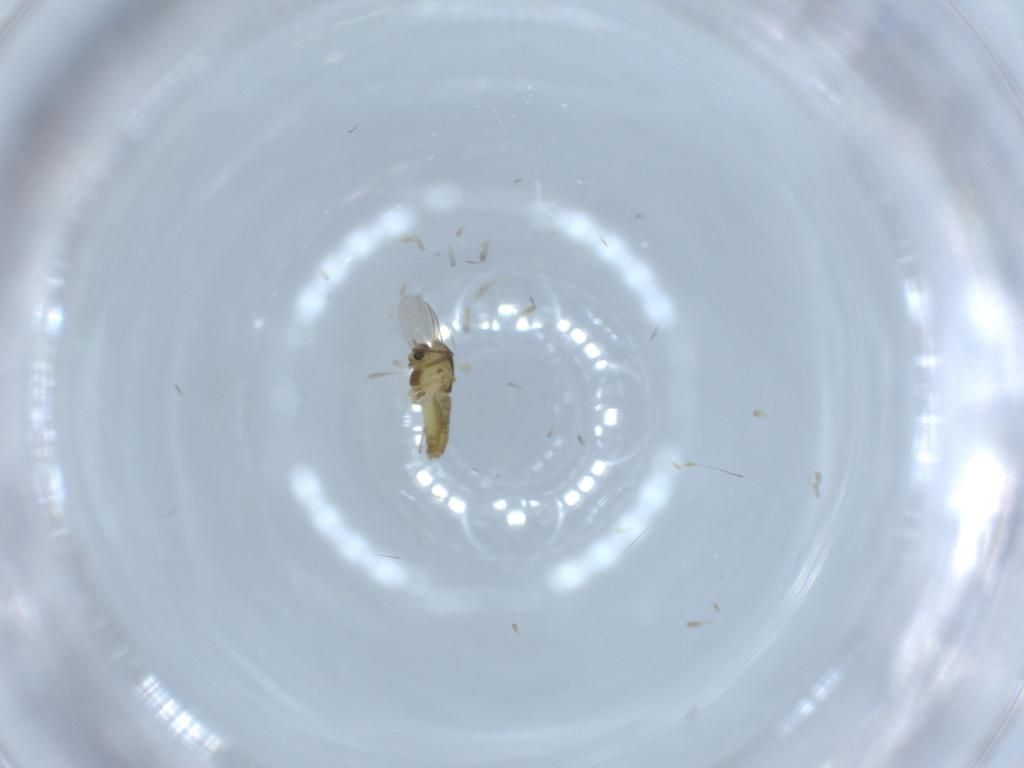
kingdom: Animalia
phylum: Arthropoda
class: Insecta
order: Diptera
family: Chironomidae
